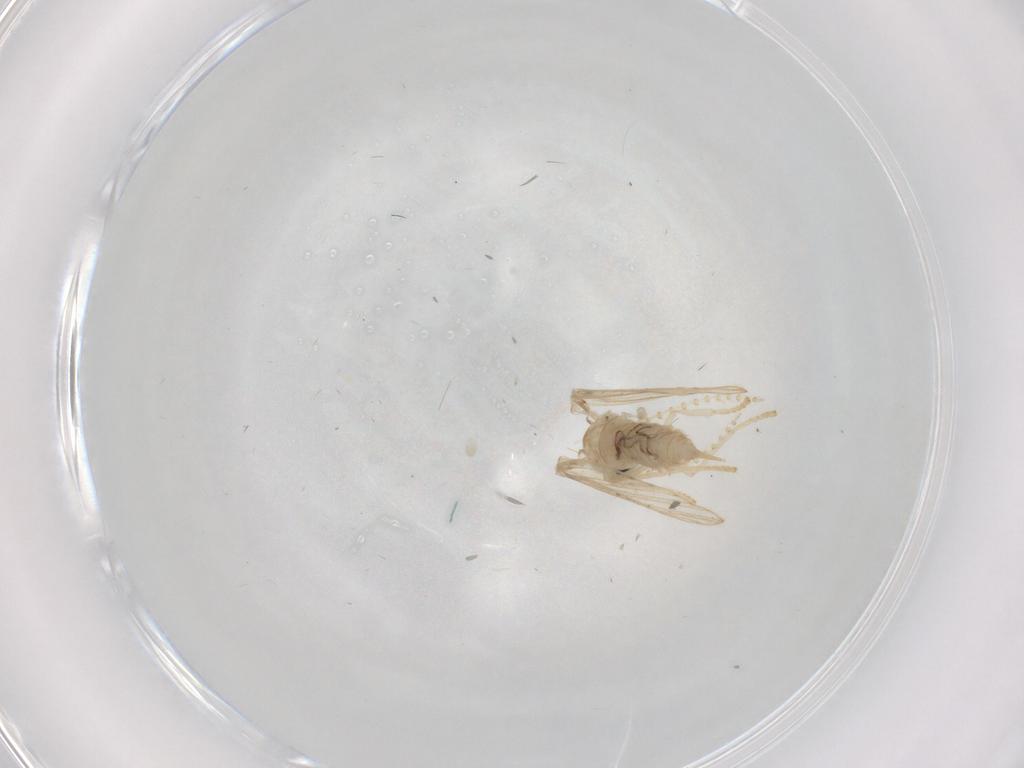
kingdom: Animalia
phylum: Arthropoda
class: Insecta
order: Diptera
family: Psychodidae
